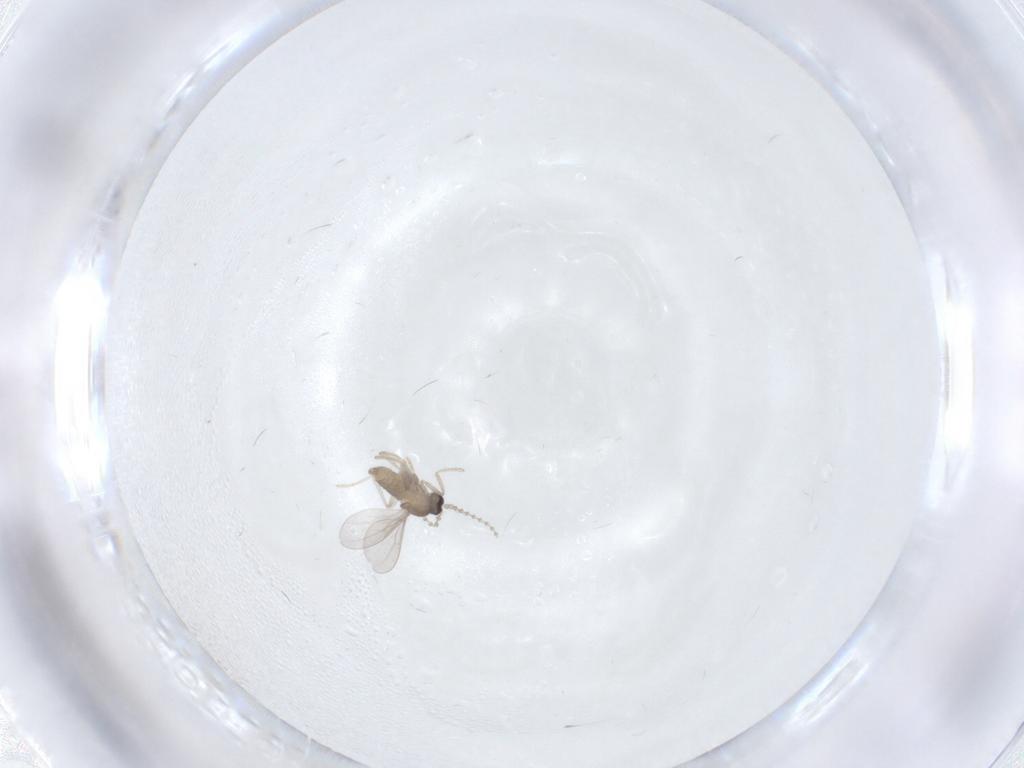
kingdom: Animalia
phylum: Arthropoda
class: Insecta
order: Diptera
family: Cecidomyiidae
